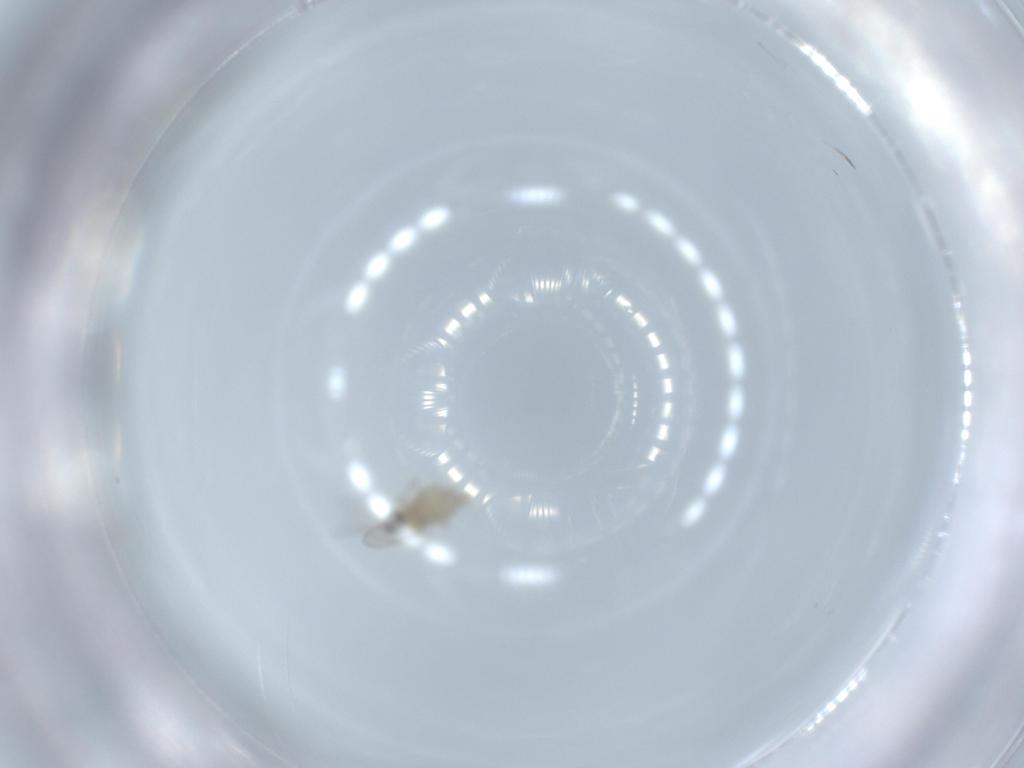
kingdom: Animalia
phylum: Arthropoda
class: Insecta
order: Diptera
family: Cecidomyiidae
